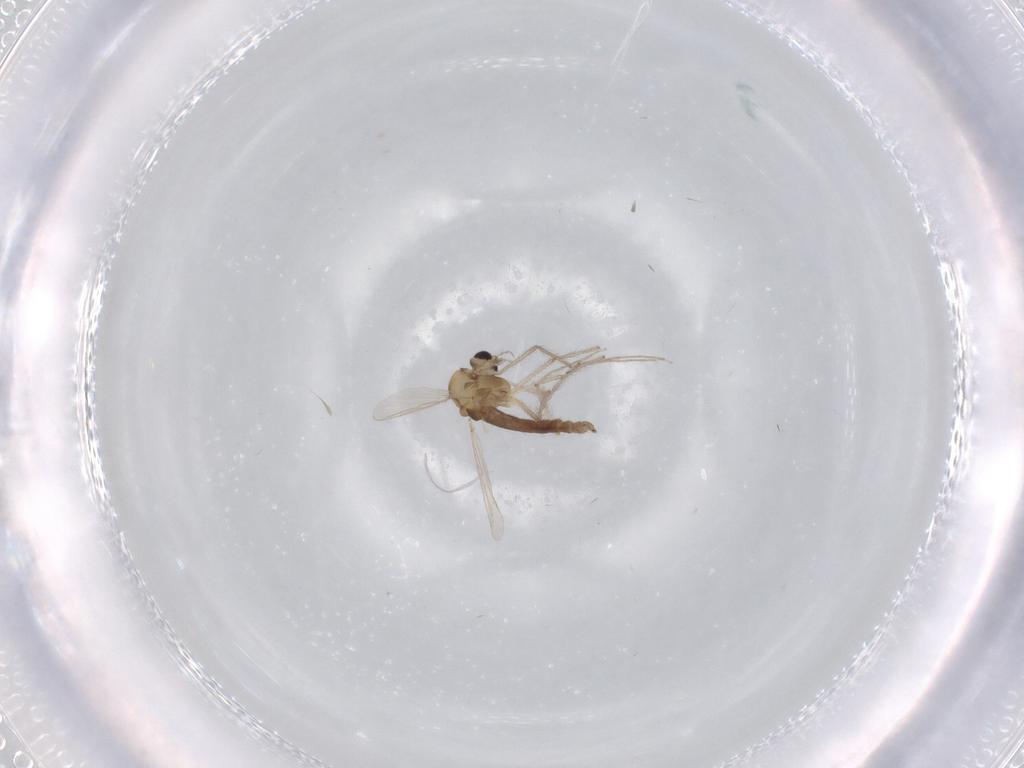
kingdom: Animalia
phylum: Arthropoda
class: Insecta
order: Diptera
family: Chironomidae
